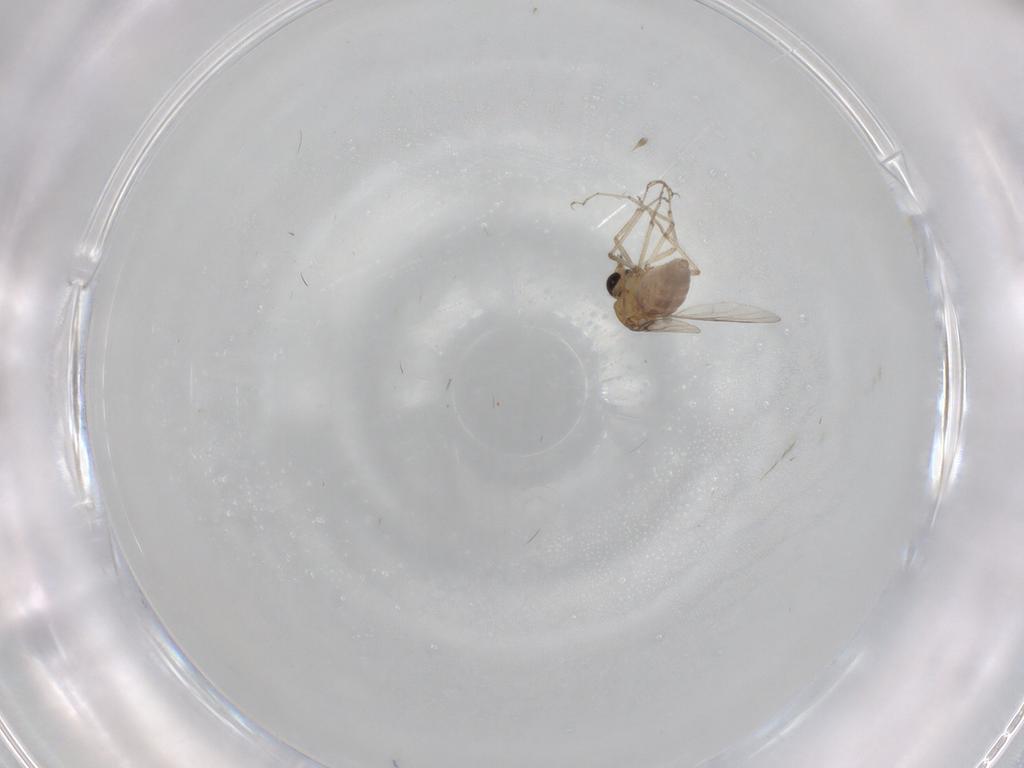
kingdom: Animalia
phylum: Arthropoda
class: Insecta
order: Diptera
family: Cecidomyiidae
